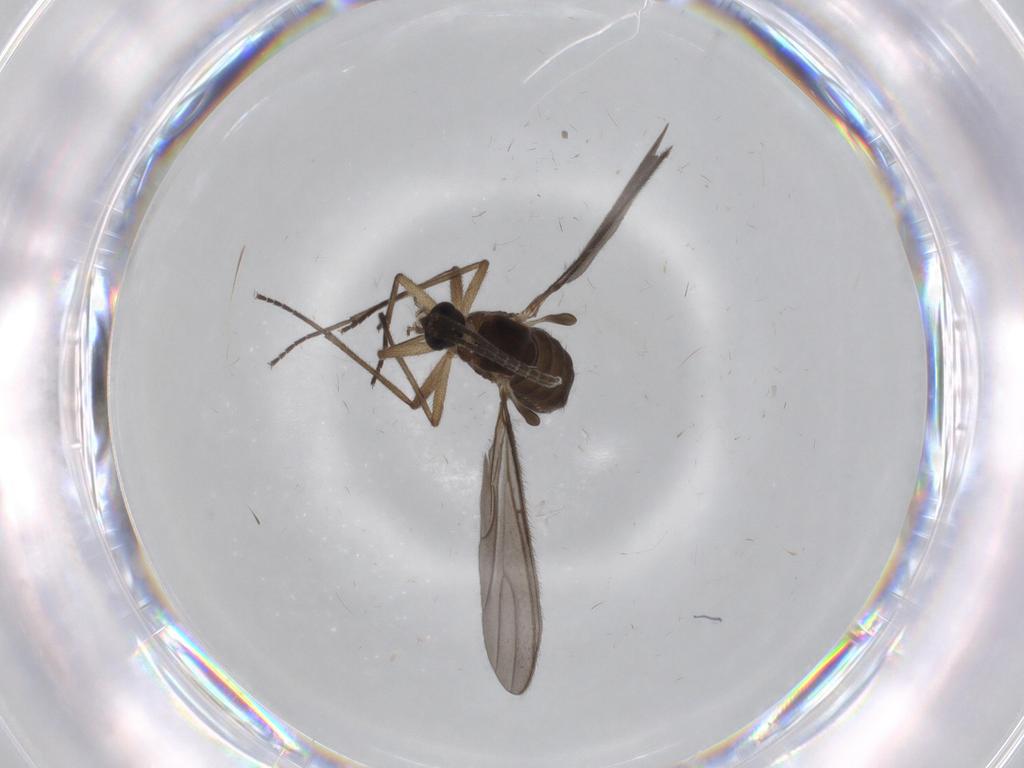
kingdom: Animalia
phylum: Arthropoda
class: Insecta
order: Diptera
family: Sciaridae
